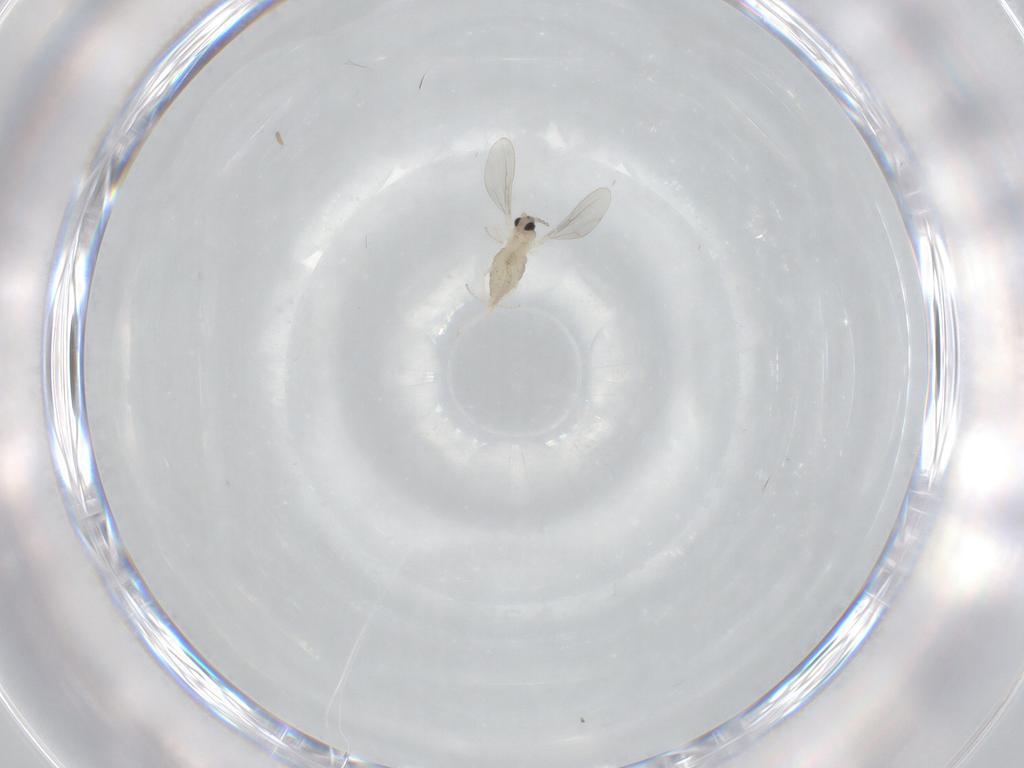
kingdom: Animalia
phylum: Arthropoda
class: Insecta
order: Diptera
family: Cecidomyiidae
